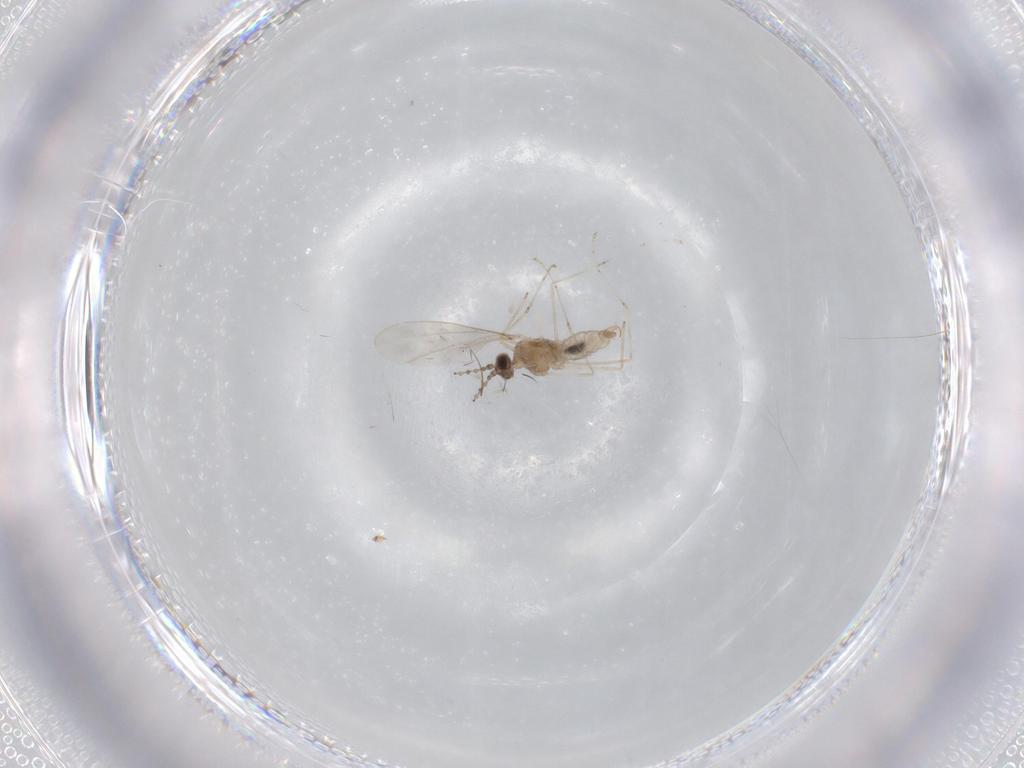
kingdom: Animalia
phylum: Arthropoda
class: Insecta
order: Diptera
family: Cecidomyiidae
